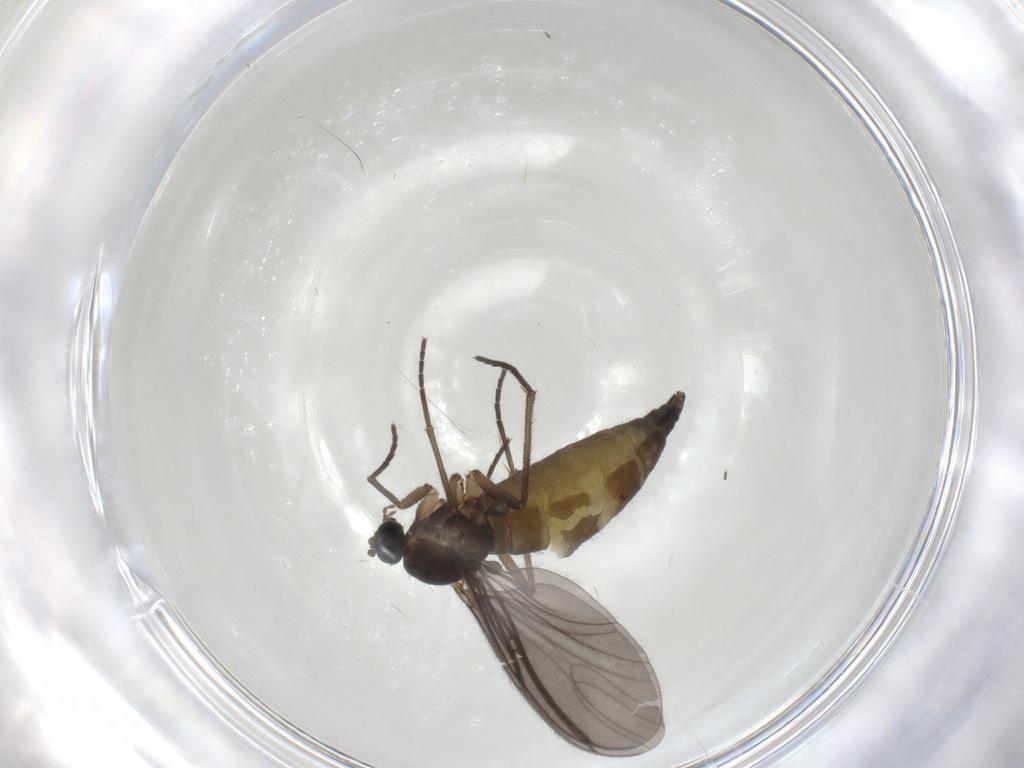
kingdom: Animalia
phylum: Arthropoda
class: Insecta
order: Diptera
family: Sciaridae
